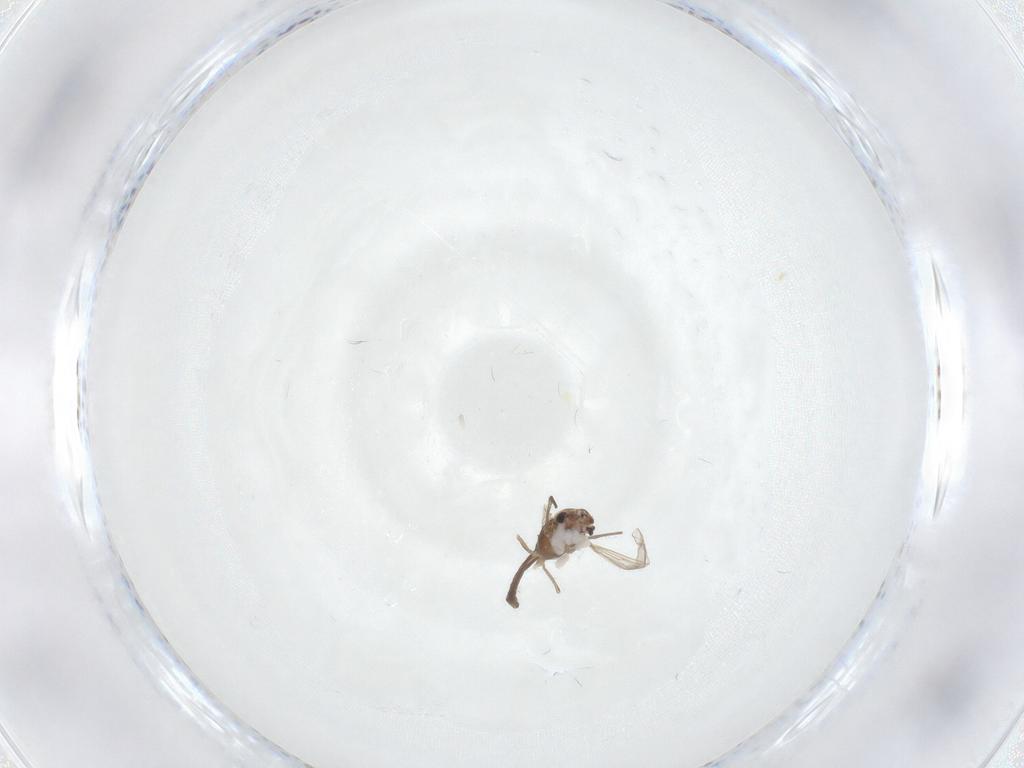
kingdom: Animalia
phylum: Arthropoda
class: Insecta
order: Diptera
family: Chironomidae
